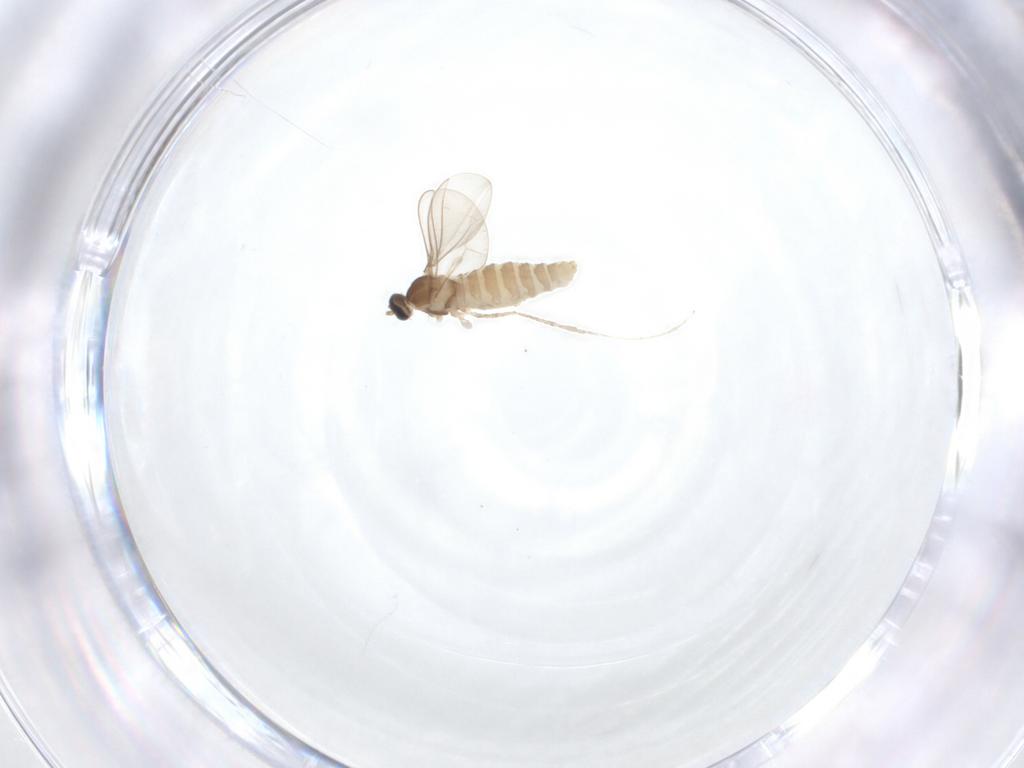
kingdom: Animalia
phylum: Arthropoda
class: Insecta
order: Diptera
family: Cecidomyiidae
